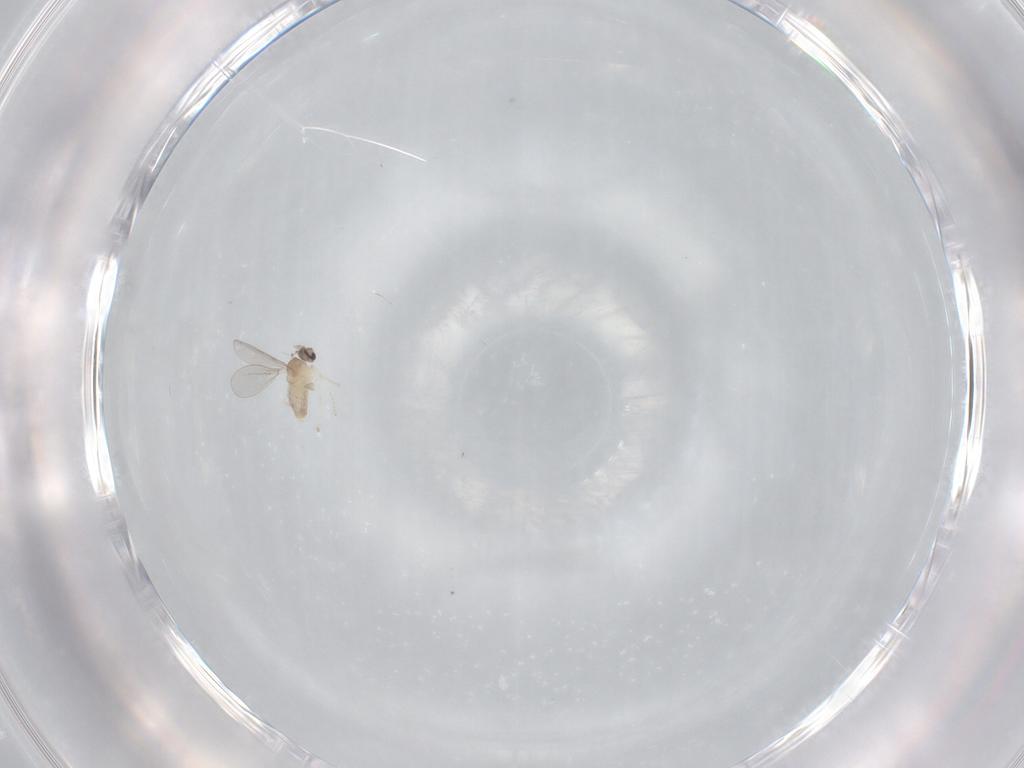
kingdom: Animalia
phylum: Arthropoda
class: Insecta
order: Diptera
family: Cecidomyiidae
